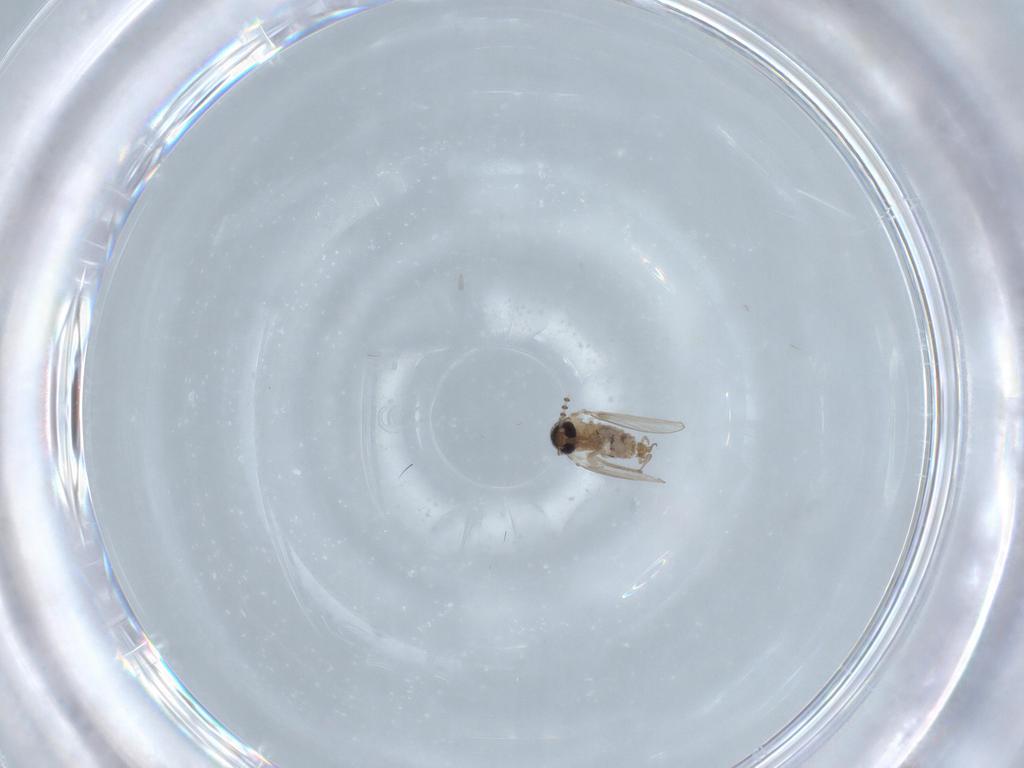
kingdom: Animalia
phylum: Arthropoda
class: Insecta
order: Diptera
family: Psychodidae
